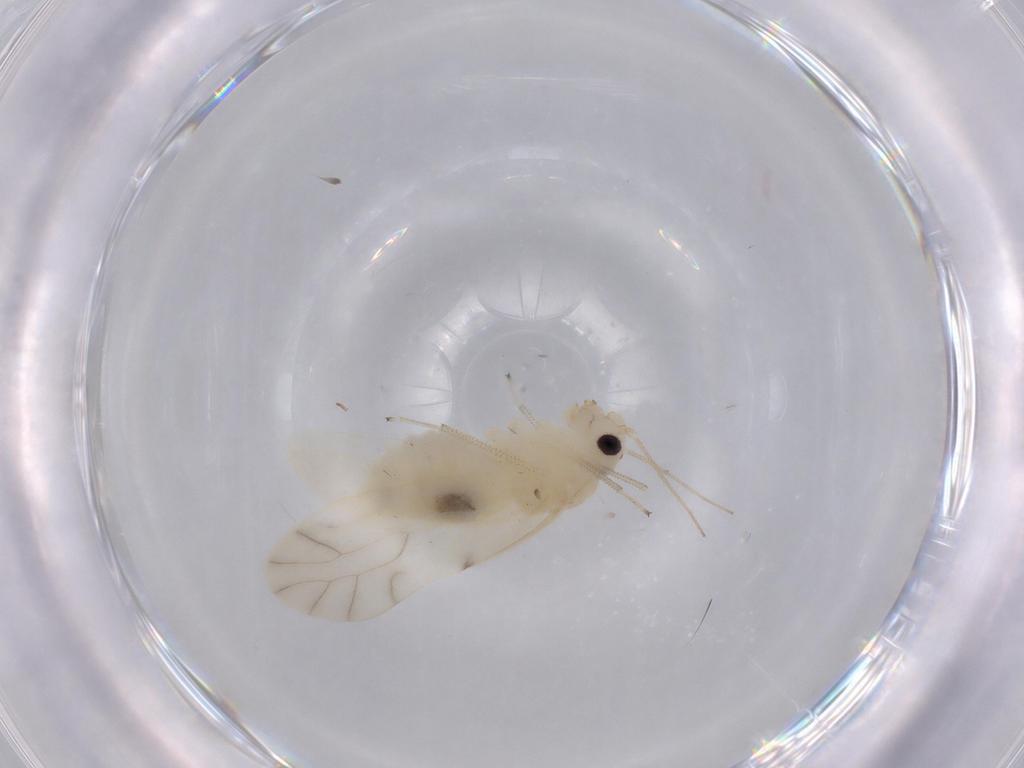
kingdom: Animalia
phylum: Arthropoda
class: Insecta
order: Psocodea
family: Caeciliusidae
